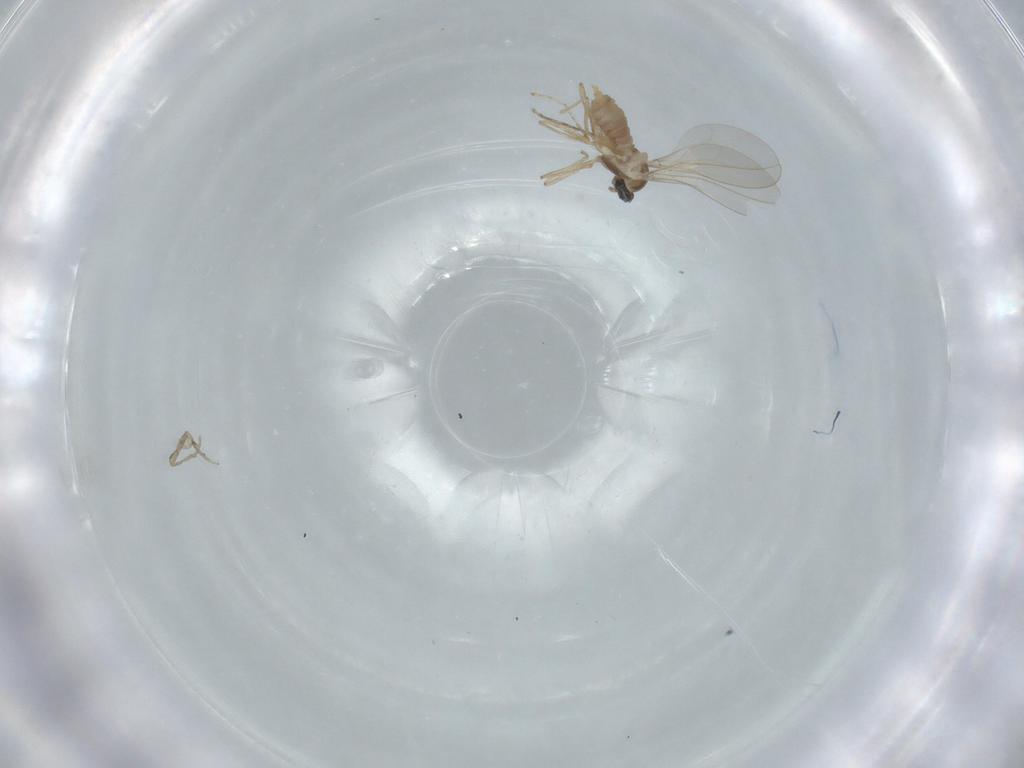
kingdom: Animalia
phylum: Arthropoda
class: Insecta
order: Diptera
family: Cecidomyiidae
